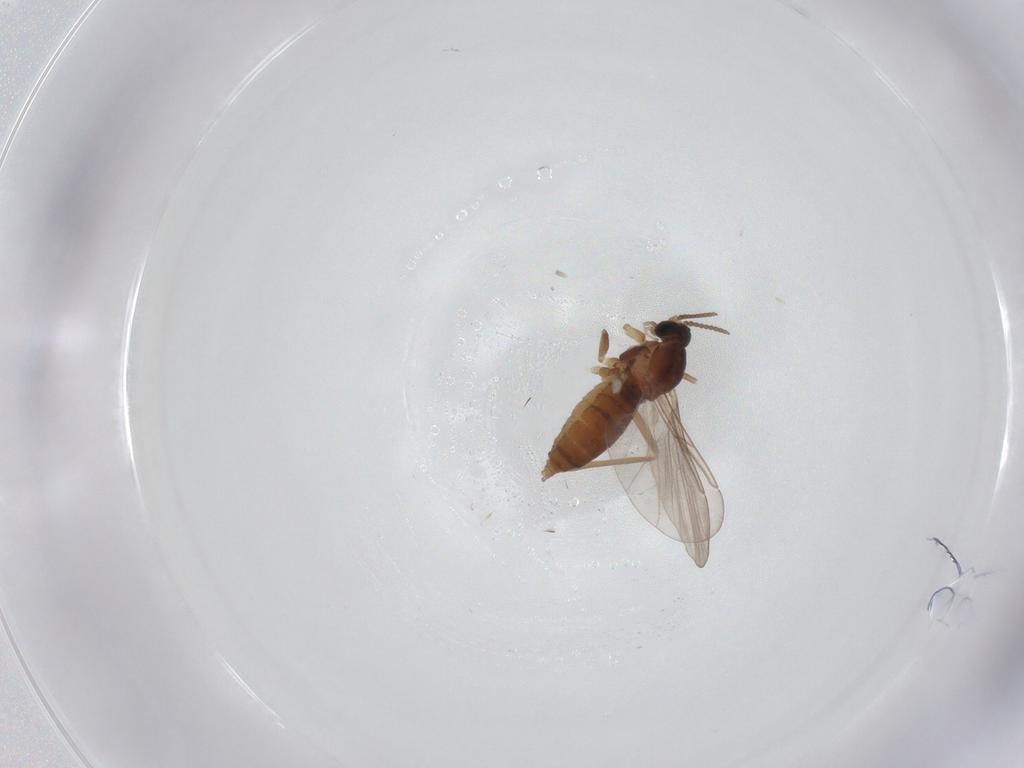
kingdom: Animalia
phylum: Arthropoda
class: Insecta
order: Diptera
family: Cecidomyiidae
